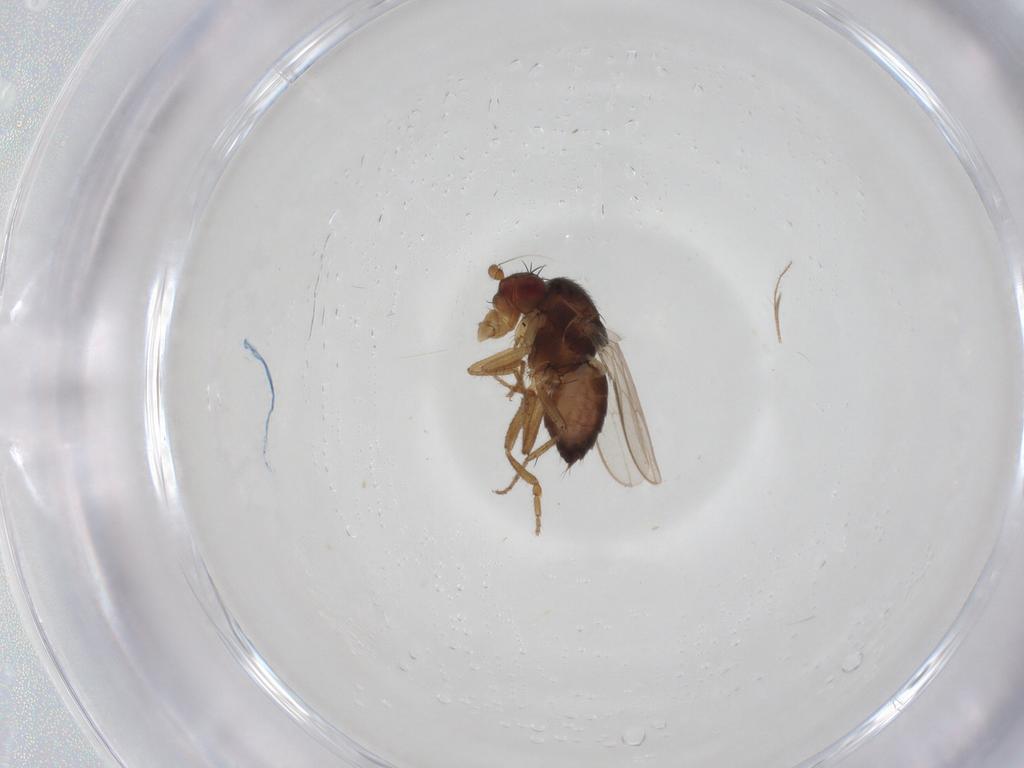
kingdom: Animalia
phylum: Arthropoda
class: Insecta
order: Diptera
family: Sphaeroceridae
